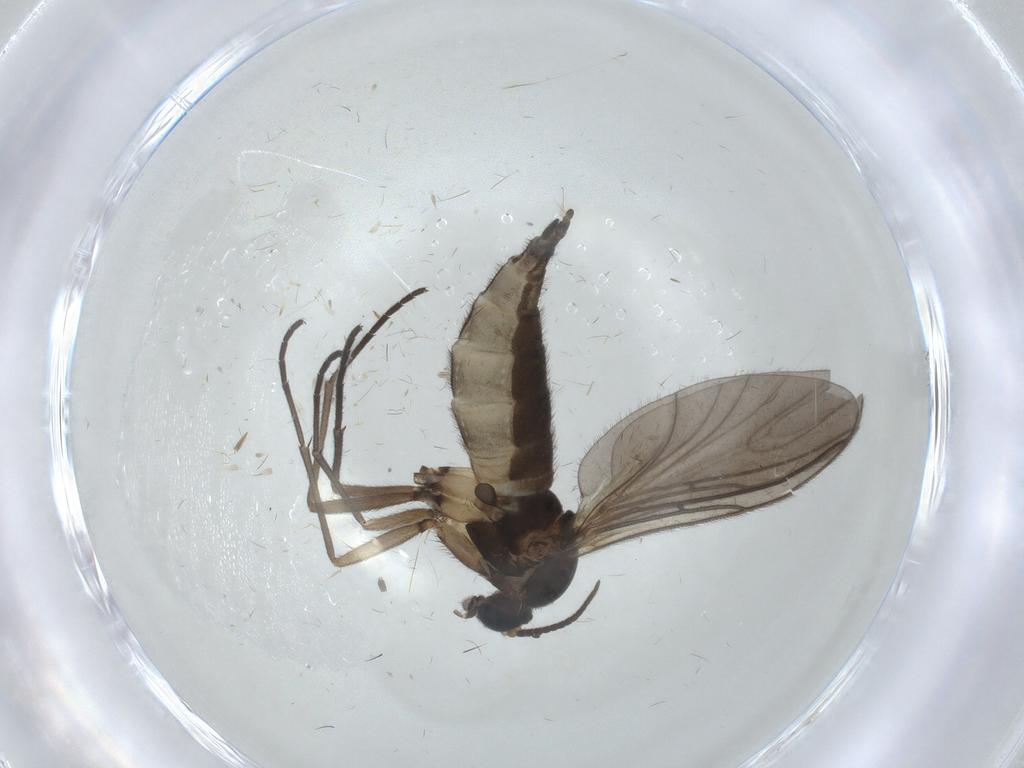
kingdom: Animalia
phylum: Arthropoda
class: Insecta
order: Diptera
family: Sciaridae
